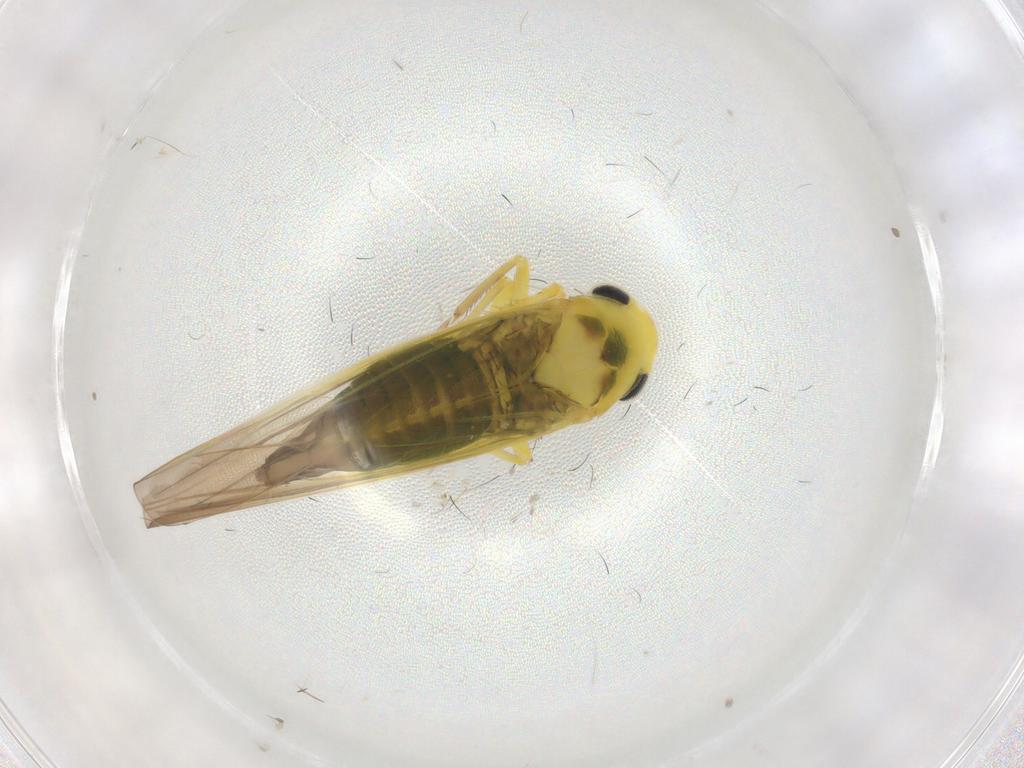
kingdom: Animalia
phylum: Arthropoda
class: Insecta
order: Hemiptera
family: Cicadellidae
